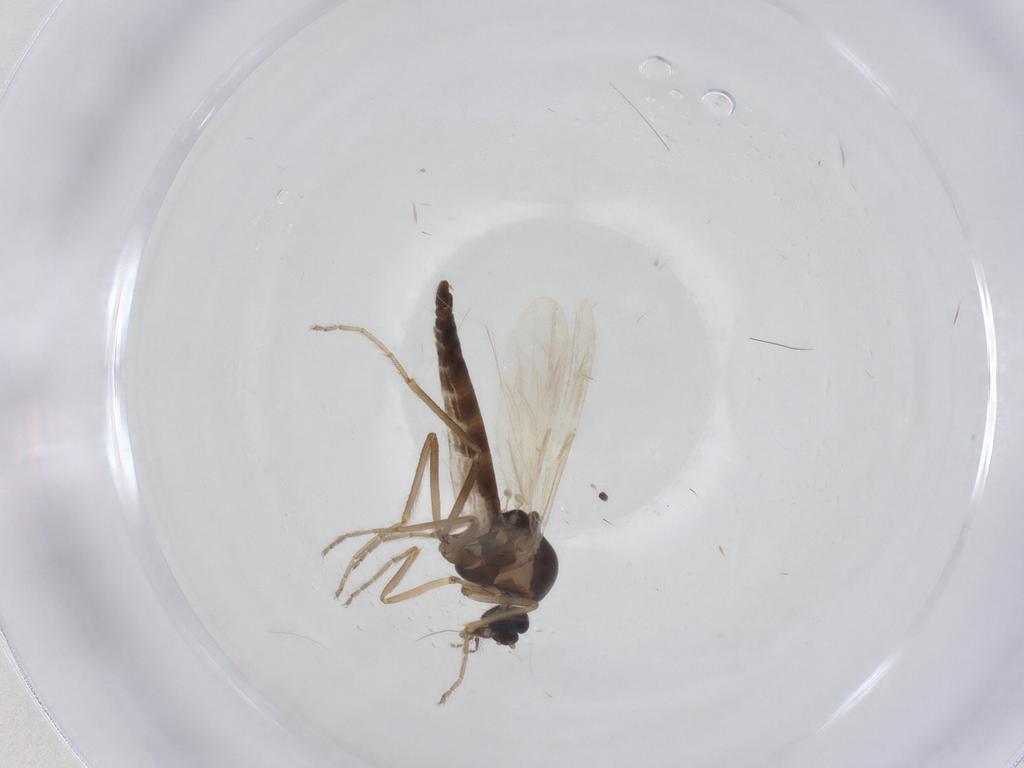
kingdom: Animalia
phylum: Arthropoda
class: Insecta
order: Diptera
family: Ceratopogonidae
